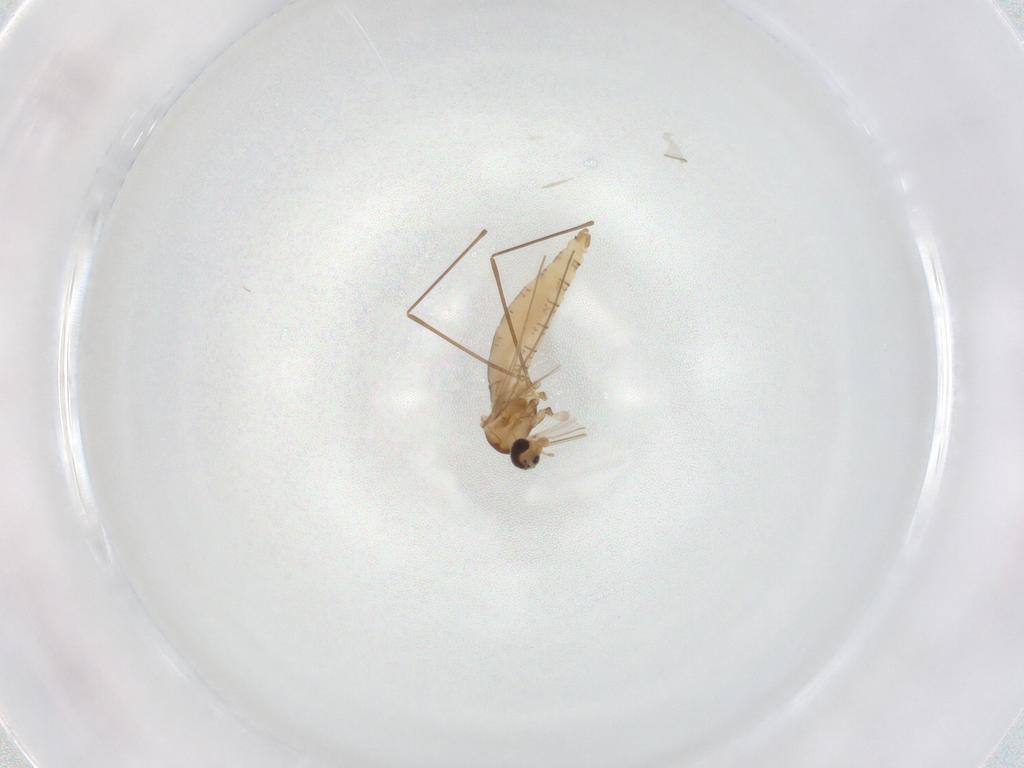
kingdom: Animalia
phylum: Arthropoda
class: Insecta
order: Diptera
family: Cecidomyiidae
